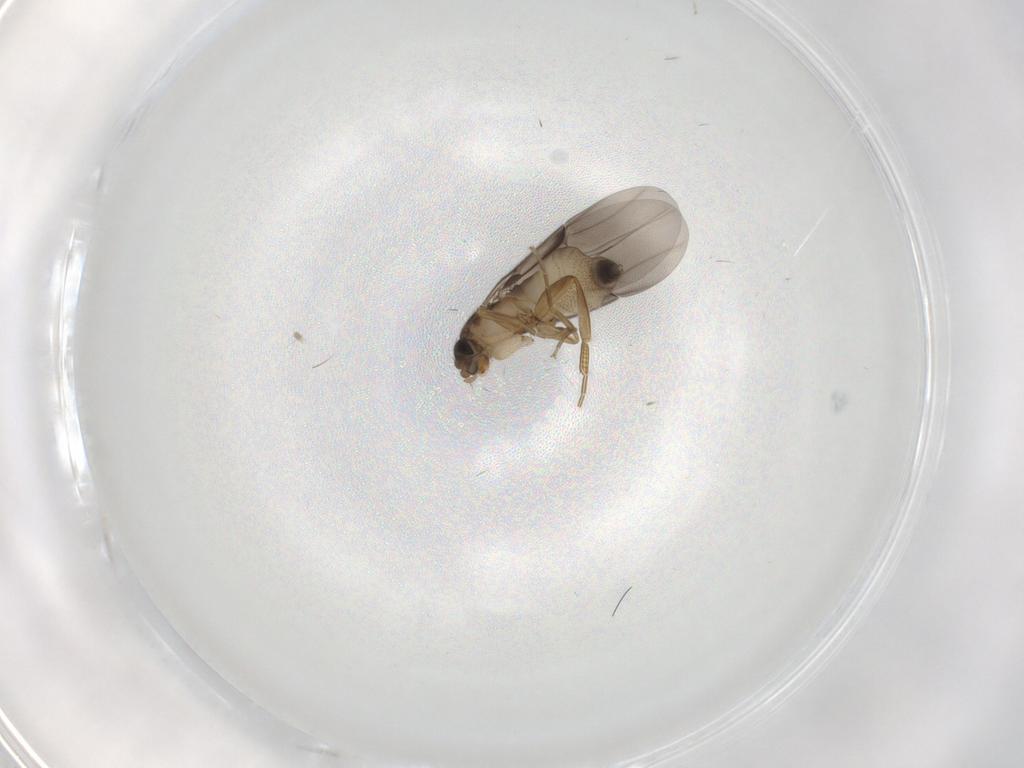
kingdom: Animalia
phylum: Arthropoda
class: Insecta
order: Diptera
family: Phoridae
